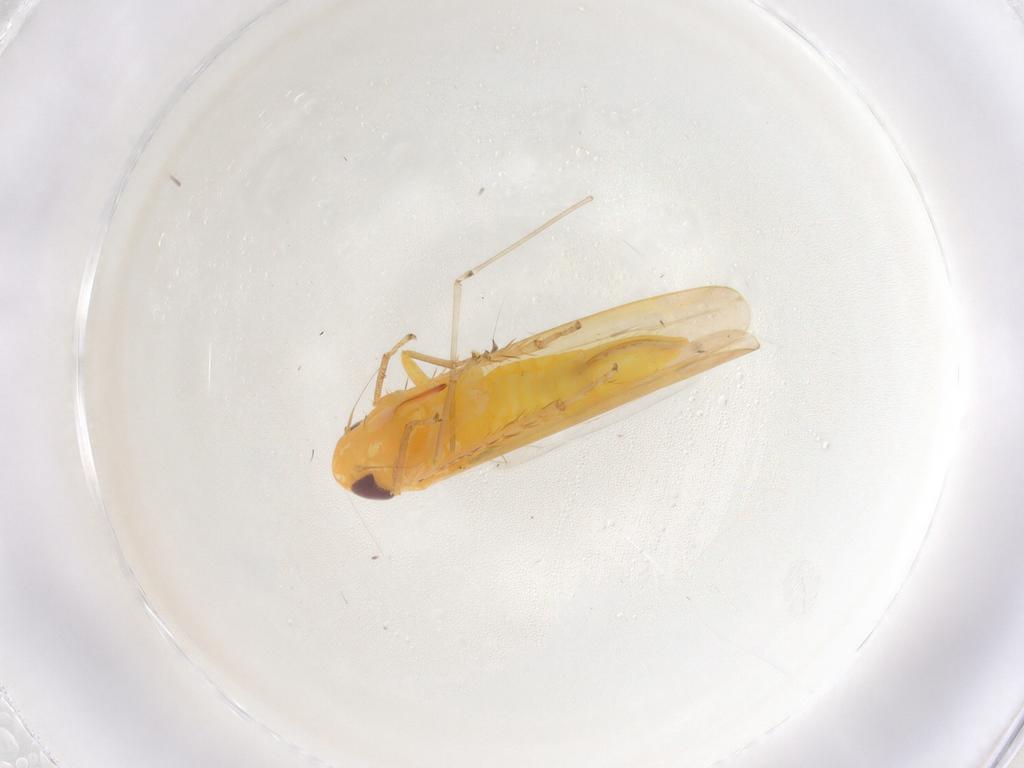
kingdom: Animalia
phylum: Arthropoda
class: Insecta
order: Hemiptera
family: Cicadellidae
